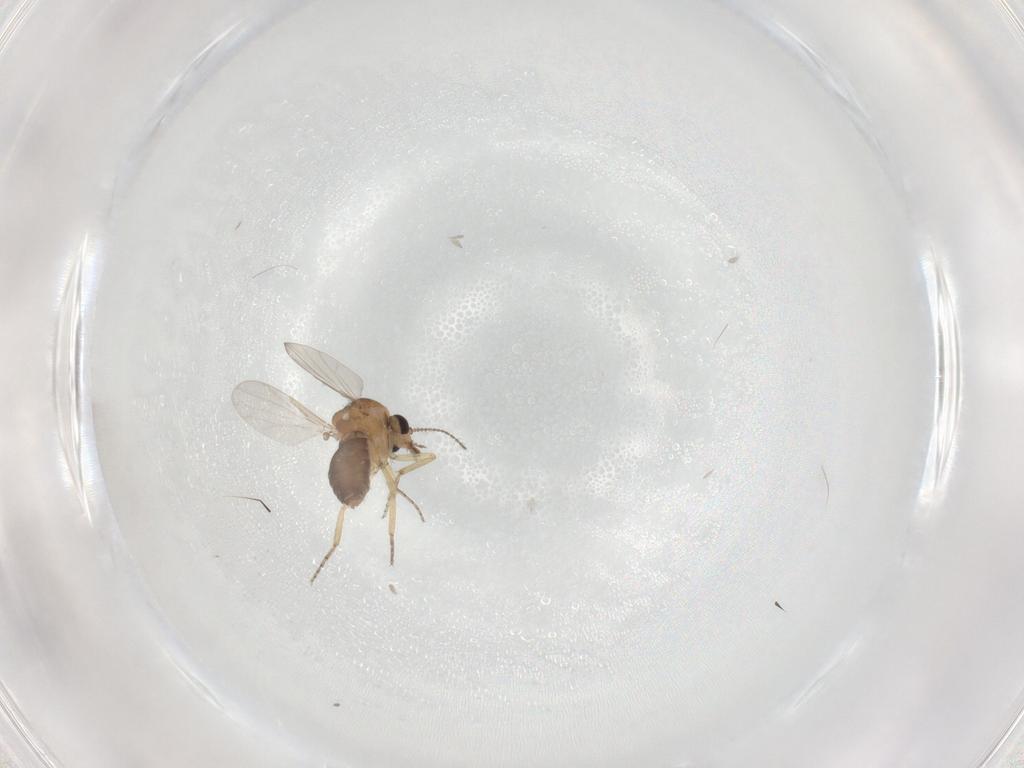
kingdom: Animalia
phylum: Arthropoda
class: Insecta
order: Diptera
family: Ceratopogonidae
